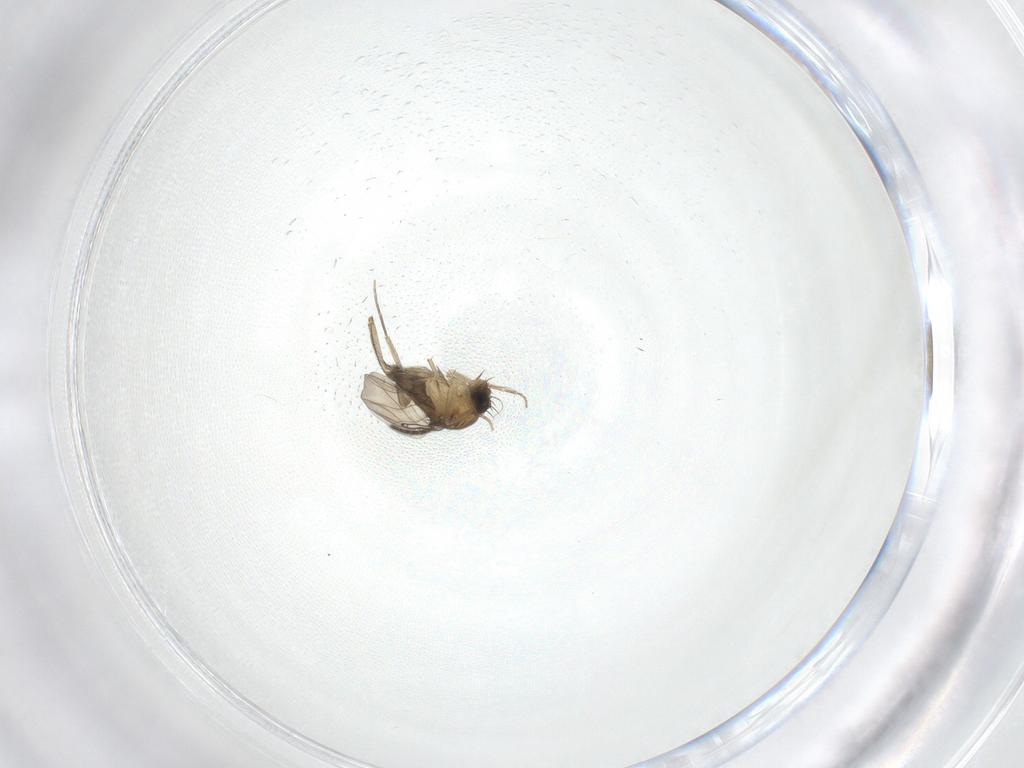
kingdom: Animalia
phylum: Arthropoda
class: Insecta
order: Diptera
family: Phoridae
